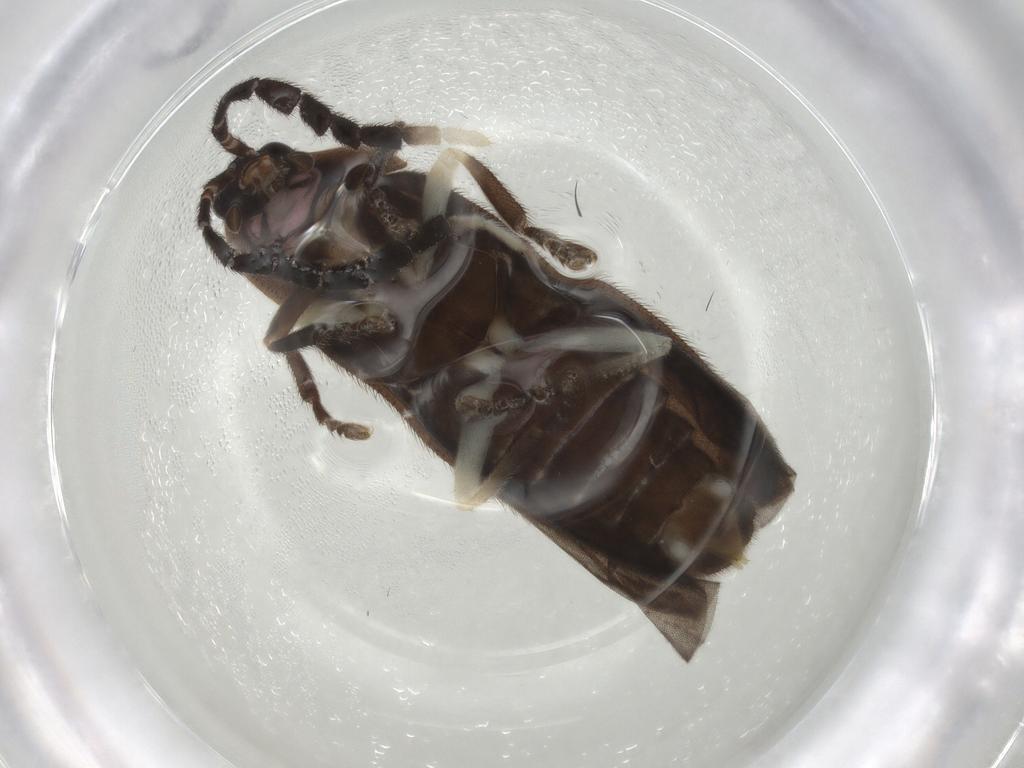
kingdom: Animalia
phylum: Arthropoda
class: Insecta
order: Coleoptera
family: Lampyridae
